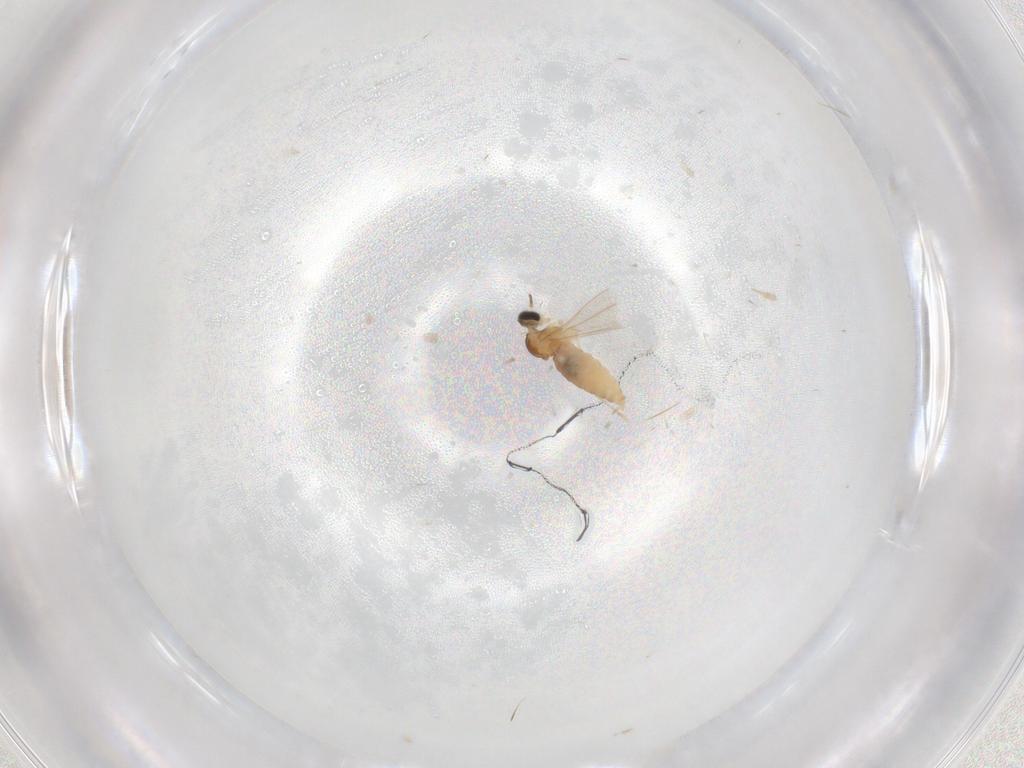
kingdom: Animalia
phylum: Arthropoda
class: Insecta
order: Diptera
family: Cecidomyiidae
